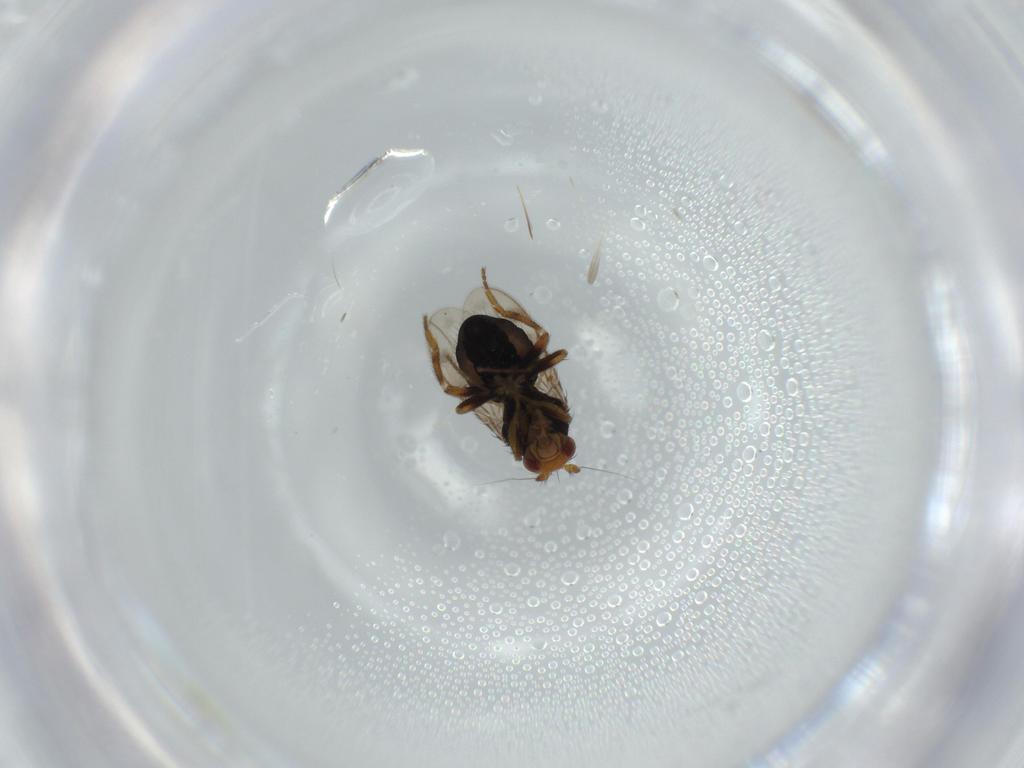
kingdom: Animalia
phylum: Arthropoda
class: Insecta
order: Diptera
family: Sphaeroceridae
